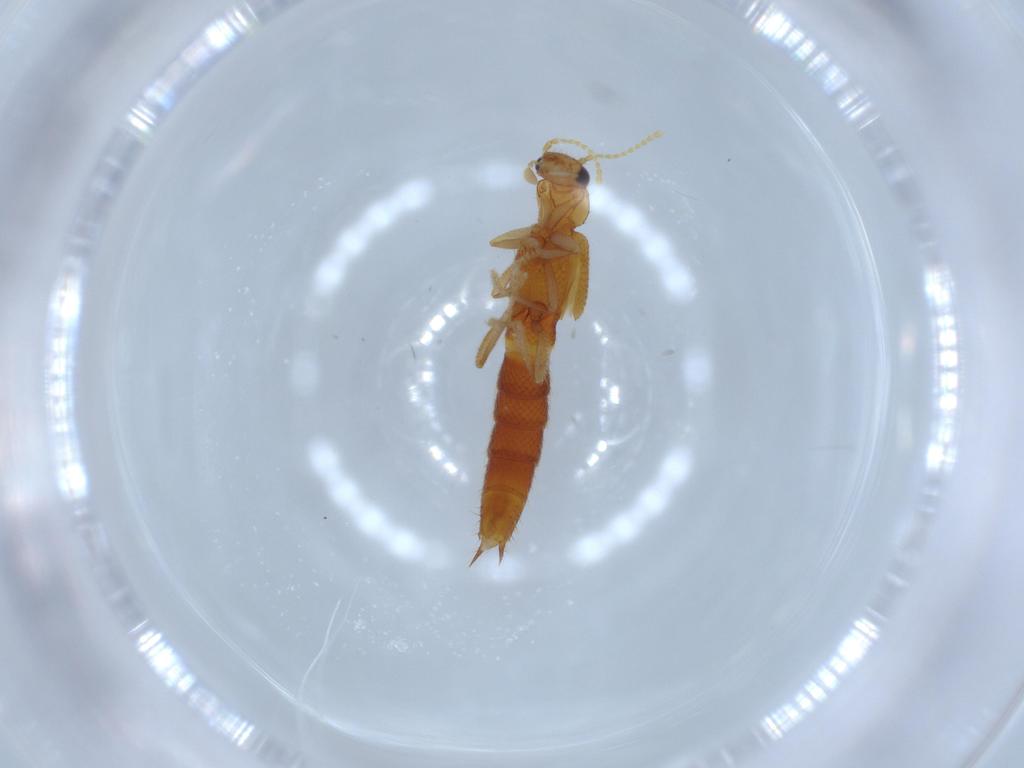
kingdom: Animalia
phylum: Arthropoda
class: Insecta
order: Coleoptera
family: Staphylinidae
